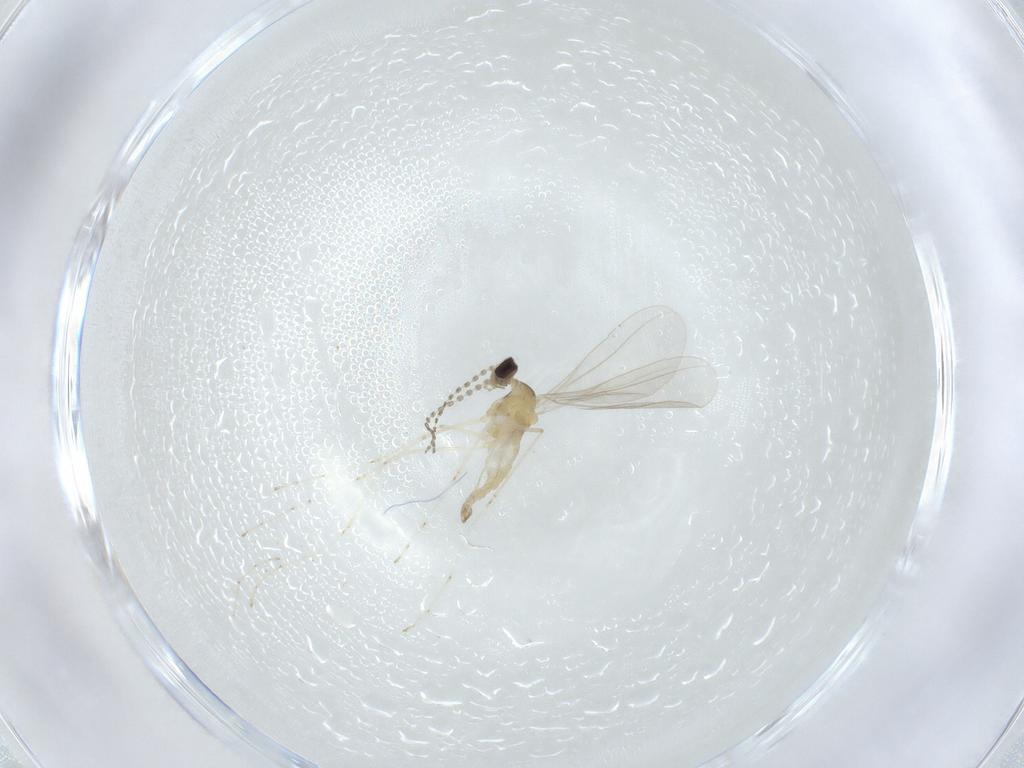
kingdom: Animalia
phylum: Arthropoda
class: Insecta
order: Diptera
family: Cecidomyiidae
